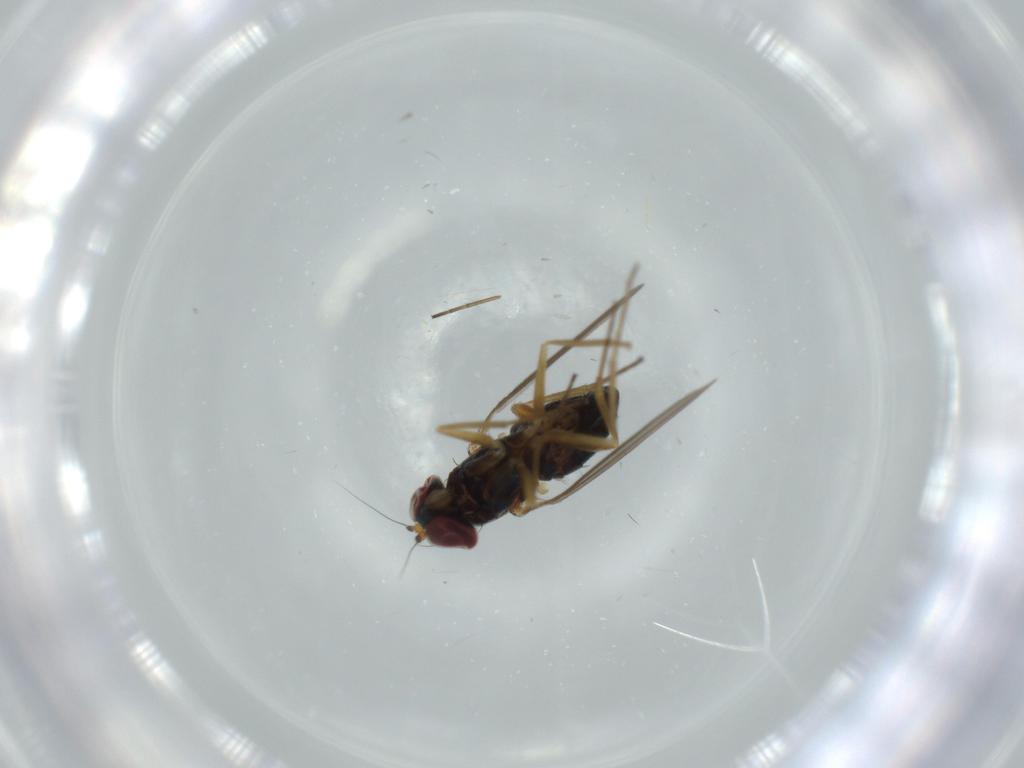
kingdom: Animalia
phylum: Arthropoda
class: Insecta
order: Diptera
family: Dolichopodidae
